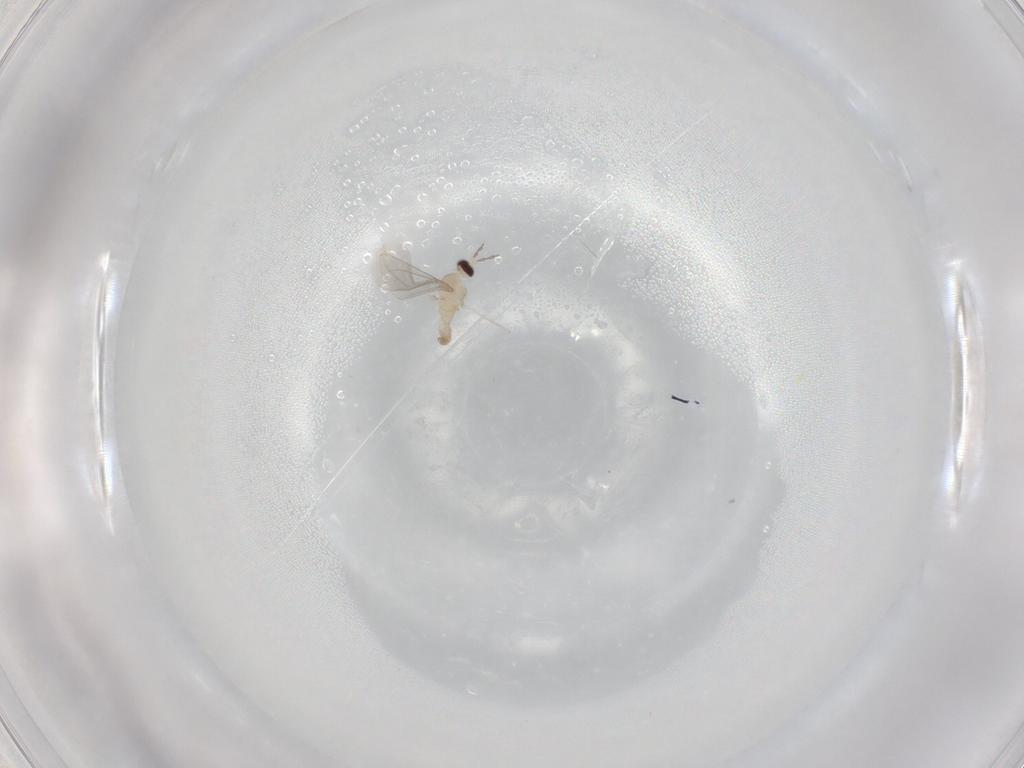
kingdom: Animalia
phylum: Arthropoda
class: Insecta
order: Diptera
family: Cecidomyiidae
